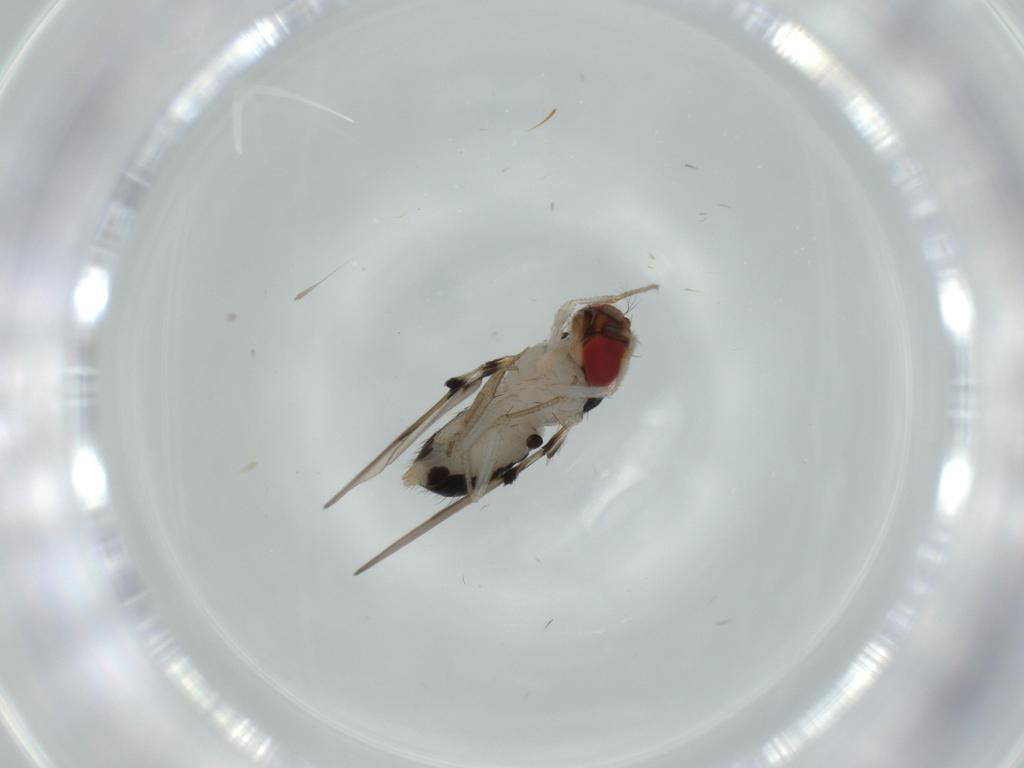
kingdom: Animalia
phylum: Arthropoda
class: Insecta
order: Diptera
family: Drosophilidae
